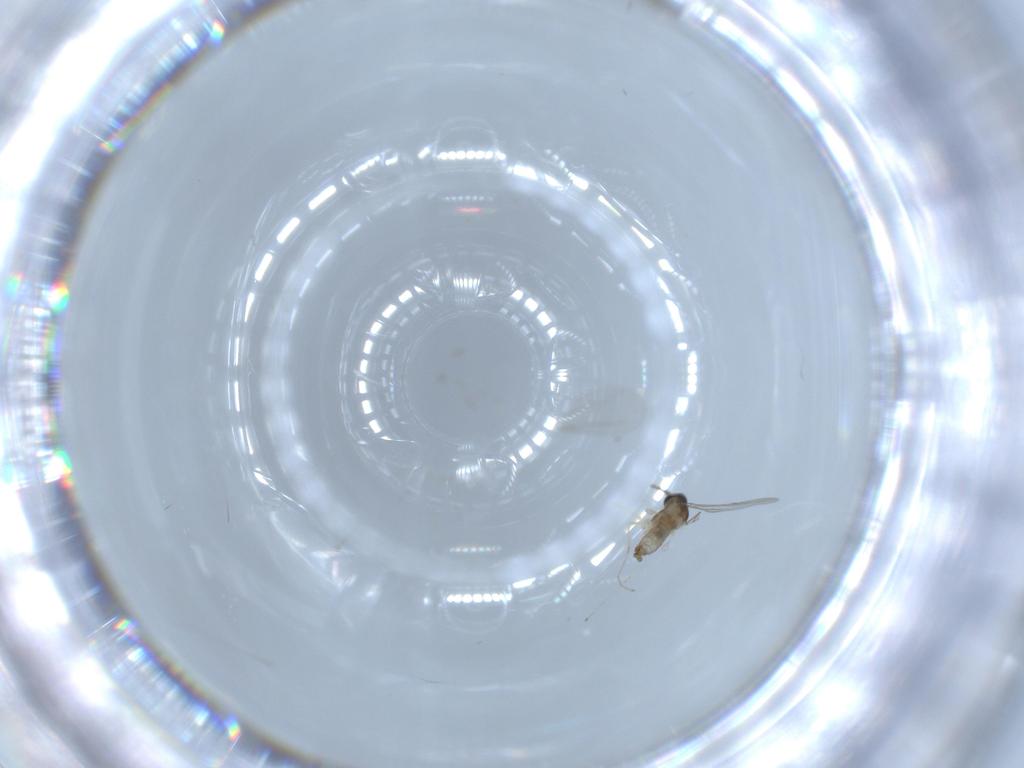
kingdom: Animalia
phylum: Arthropoda
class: Insecta
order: Diptera
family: Cecidomyiidae
